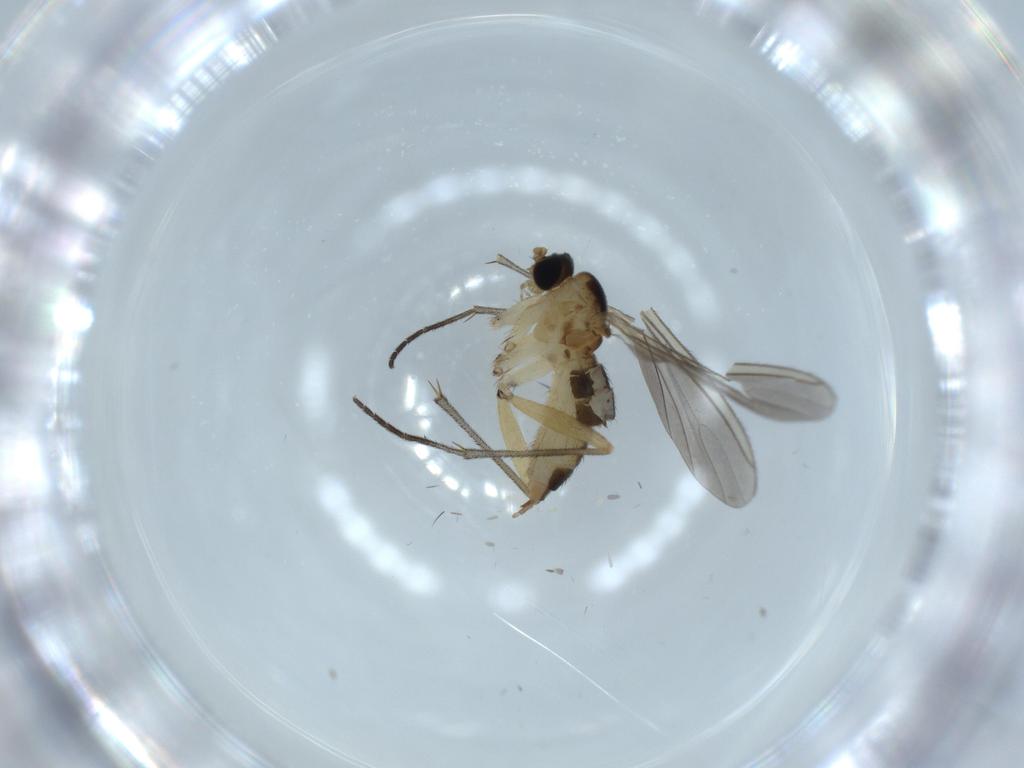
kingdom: Animalia
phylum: Arthropoda
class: Insecta
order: Diptera
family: Sciaridae
